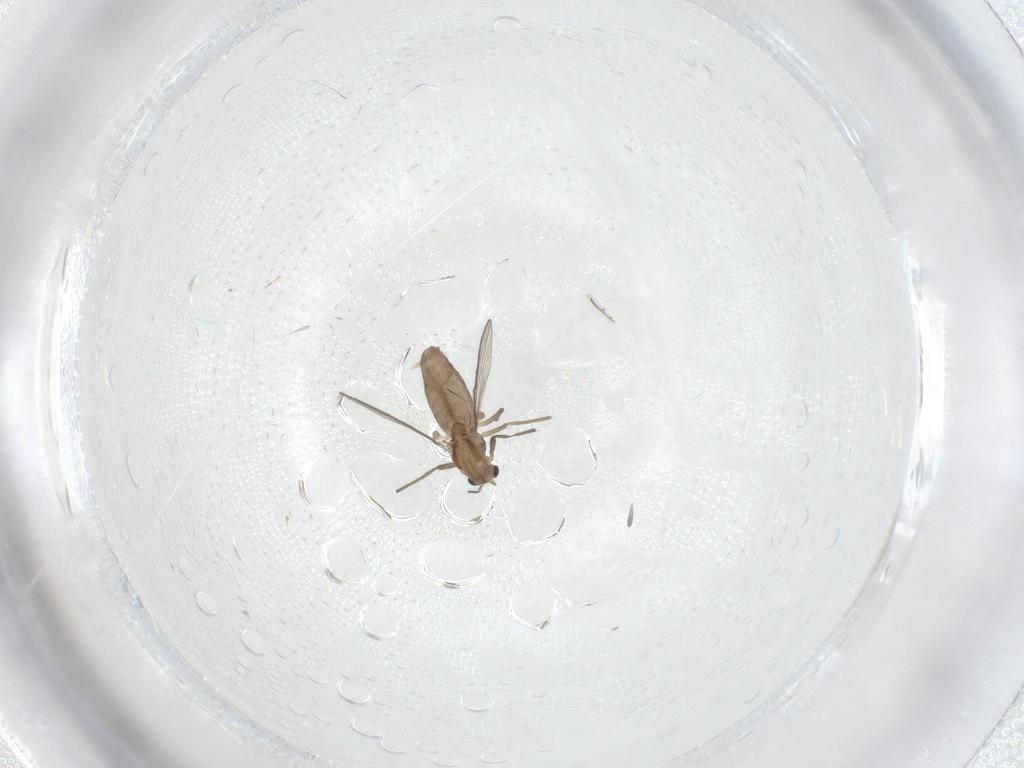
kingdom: Animalia
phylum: Arthropoda
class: Insecta
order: Diptera
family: Chironomidae
